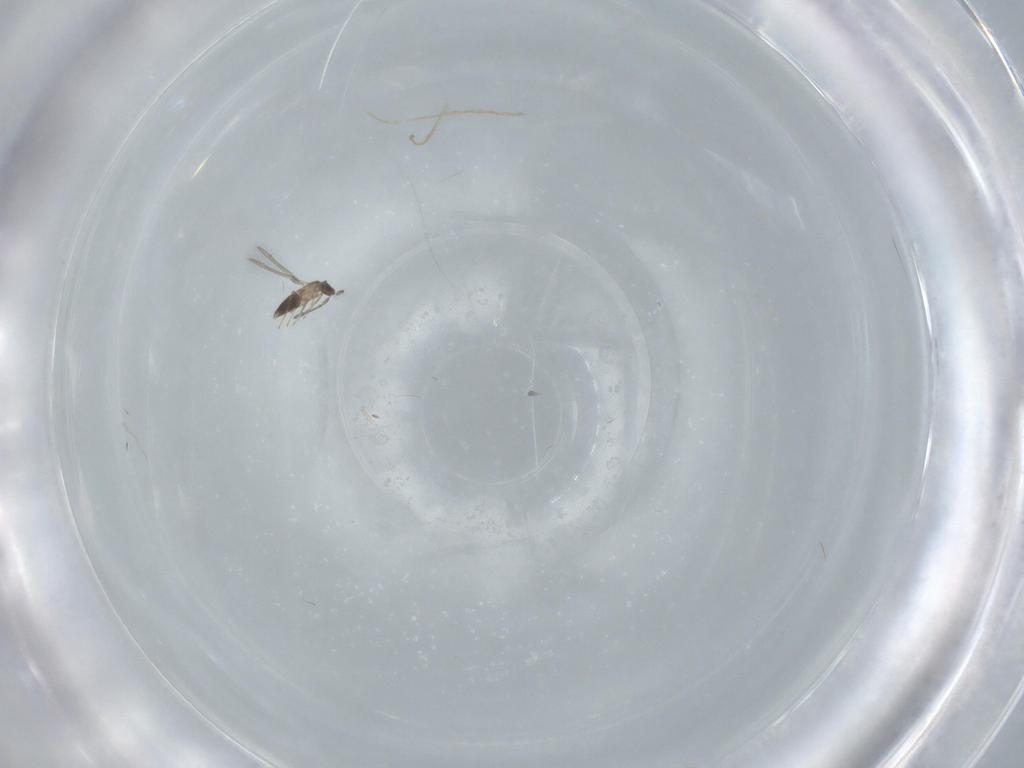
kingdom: Animalia
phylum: Arthropoda
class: Insecta
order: Hymenoptera
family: Mymaridae
